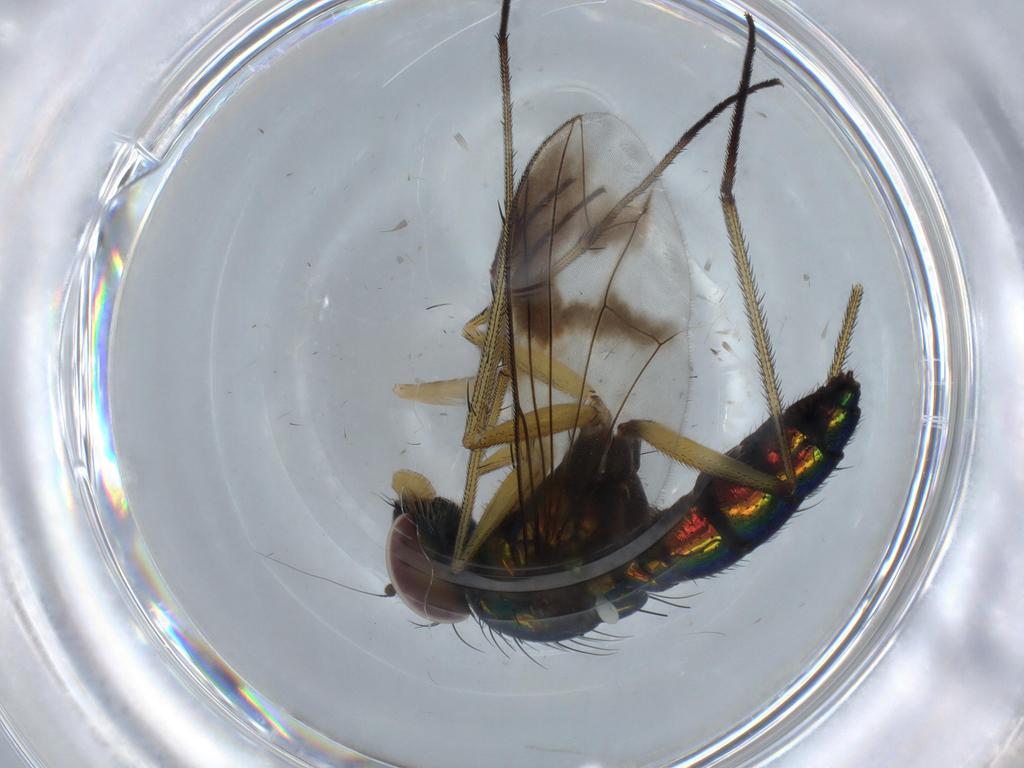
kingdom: Animalia
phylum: Arthropoda
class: Insecta
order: Diptera
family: Dolichopodidae
